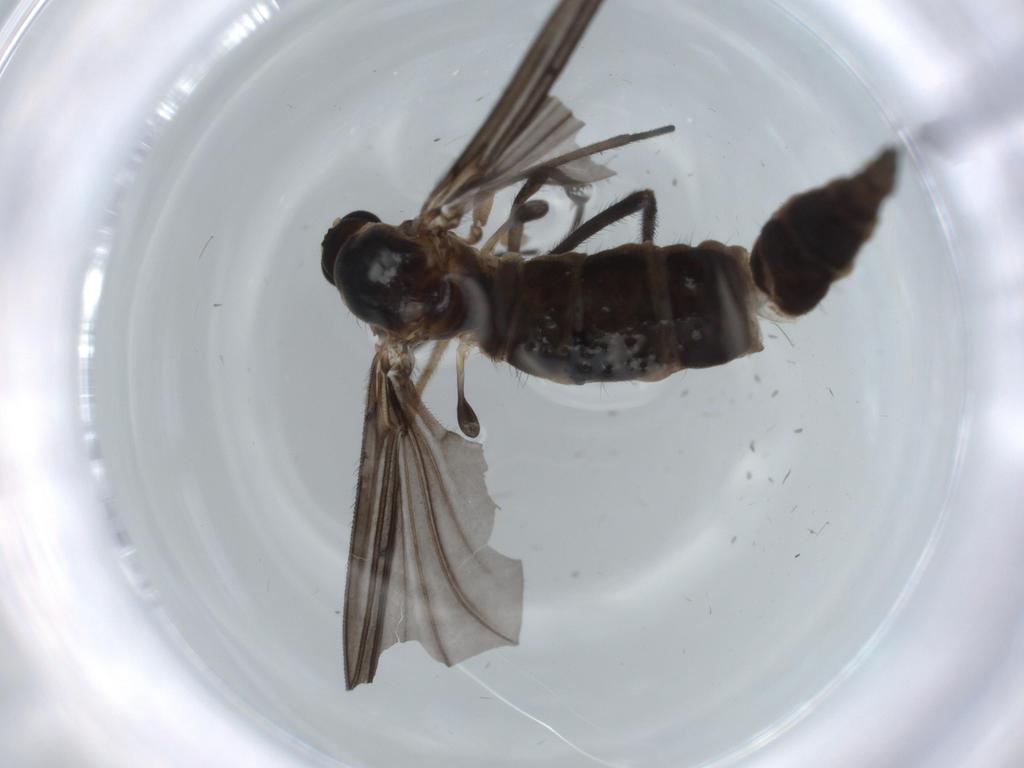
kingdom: Animalia
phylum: Arthropoda
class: Insecta
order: Diptera
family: Sciaridae
